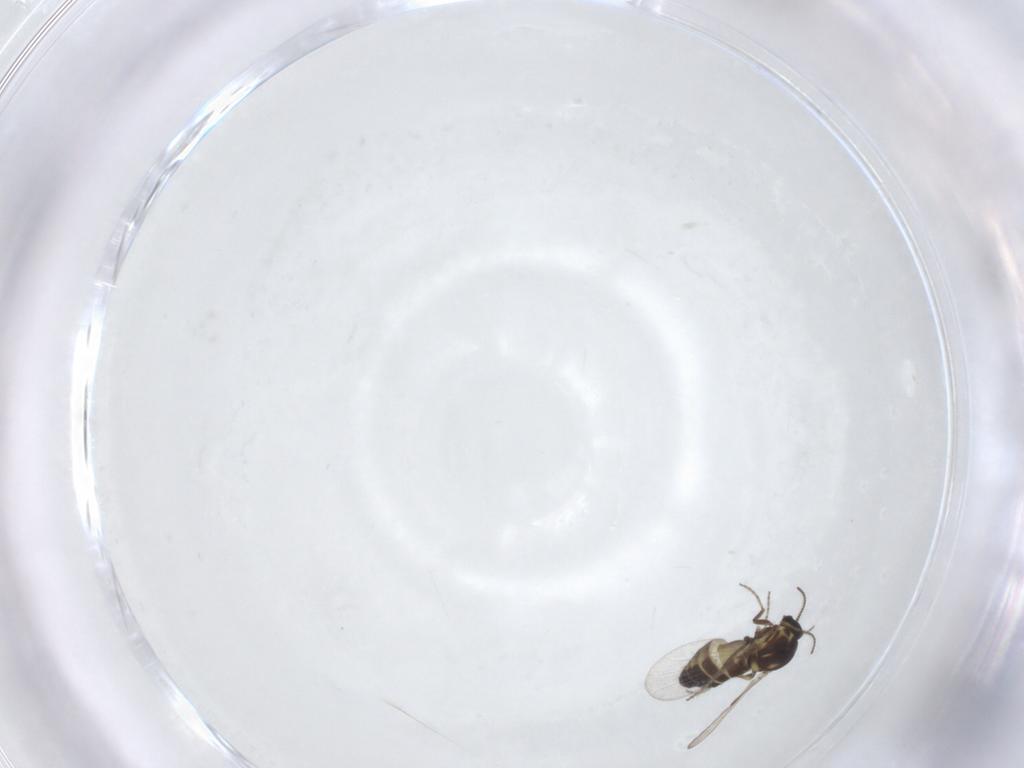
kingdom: Animalia
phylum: Arthropoda
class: Insecta
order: Diptera
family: Ceratopogonidae
